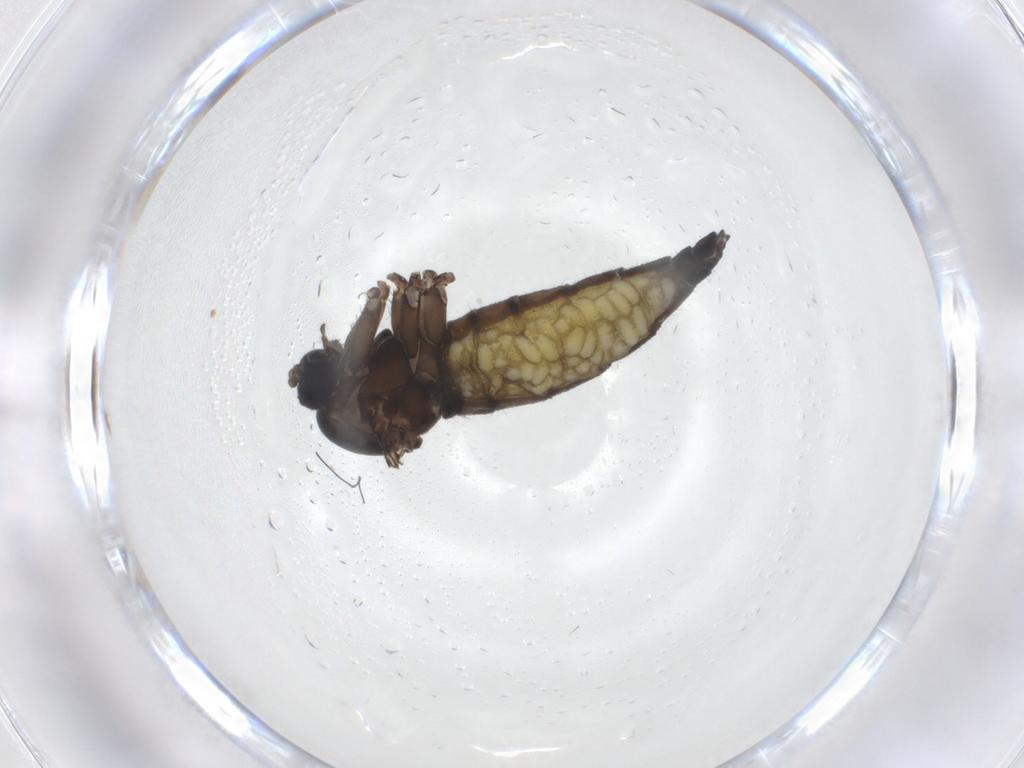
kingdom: Animalia
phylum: Arthropoda
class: Insecta
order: Diptera
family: Sciaridae
